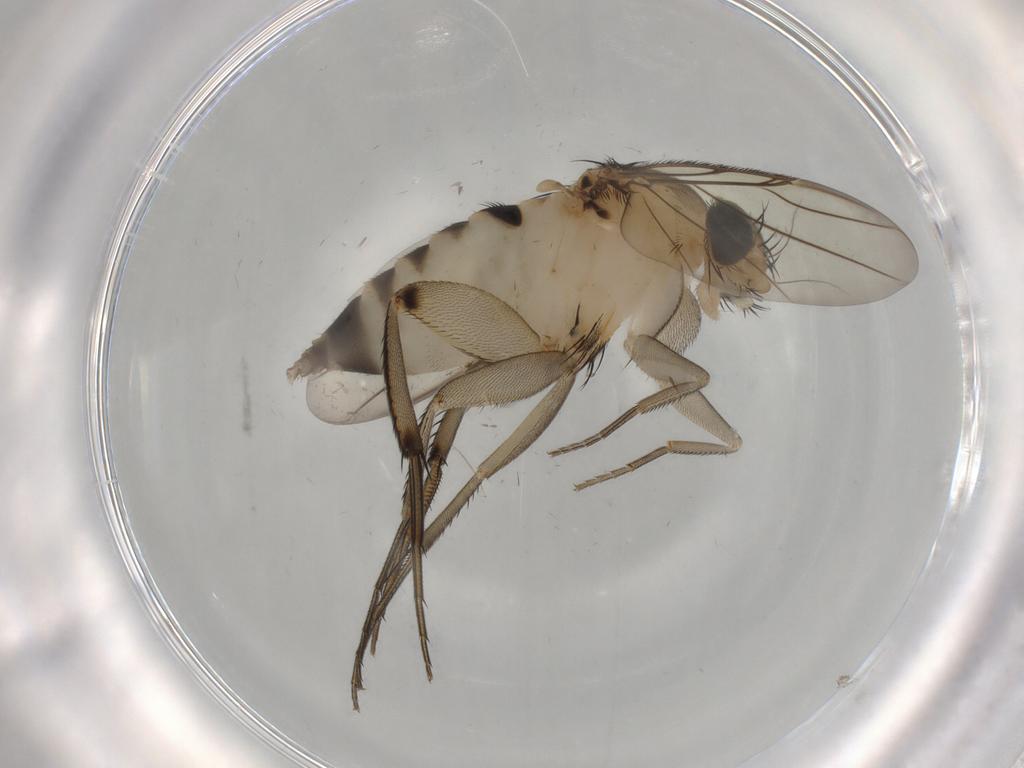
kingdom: Animalia
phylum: Arthropoda
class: Insecta
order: Diptera
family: Phoridae
